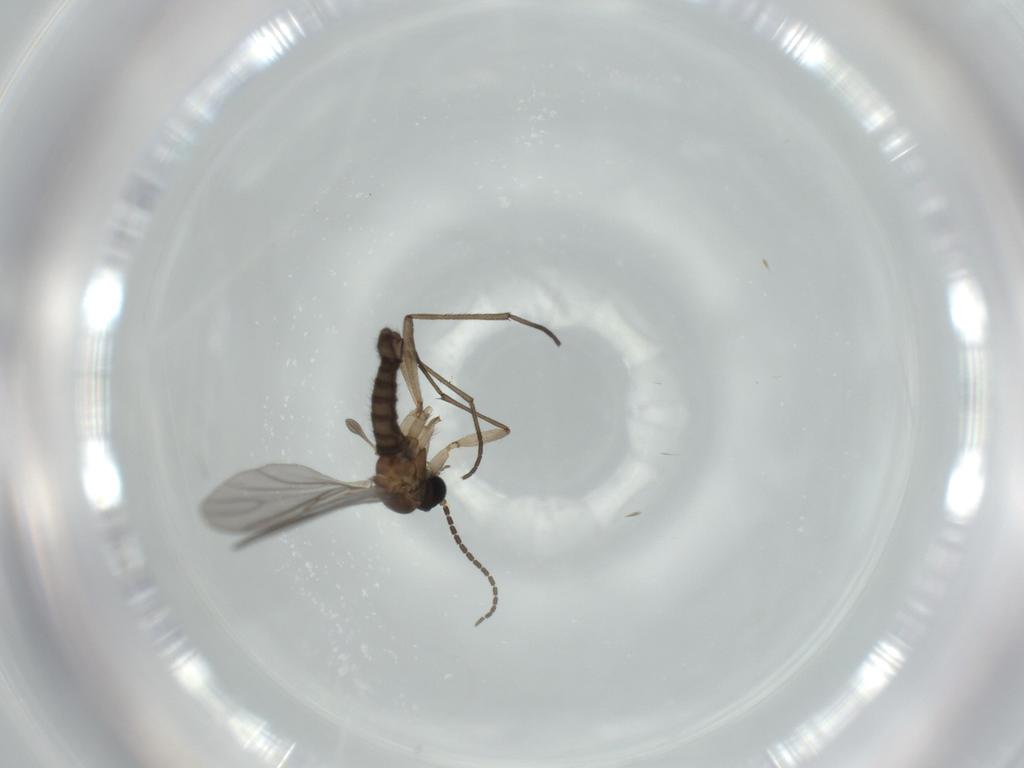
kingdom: Animalia
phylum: Arthropoda
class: Insecta
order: Diptera
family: Sciaridae
